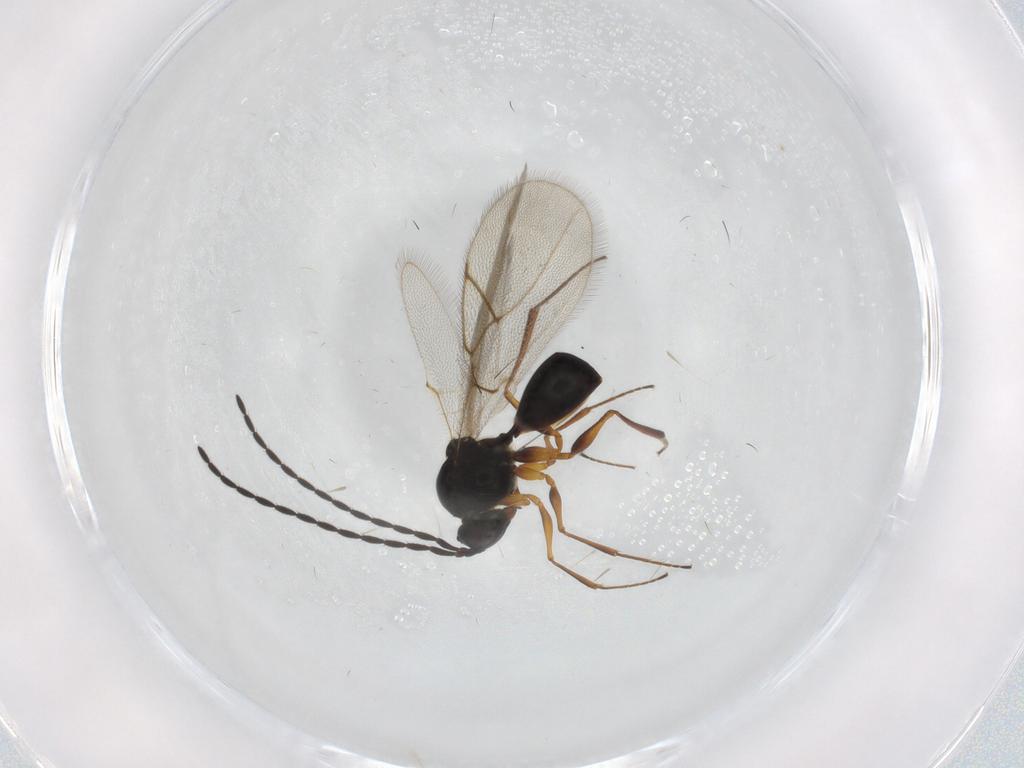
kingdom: Animalia
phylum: Arthropoda
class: Insecta
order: Hymenoptera
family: Figitidae
